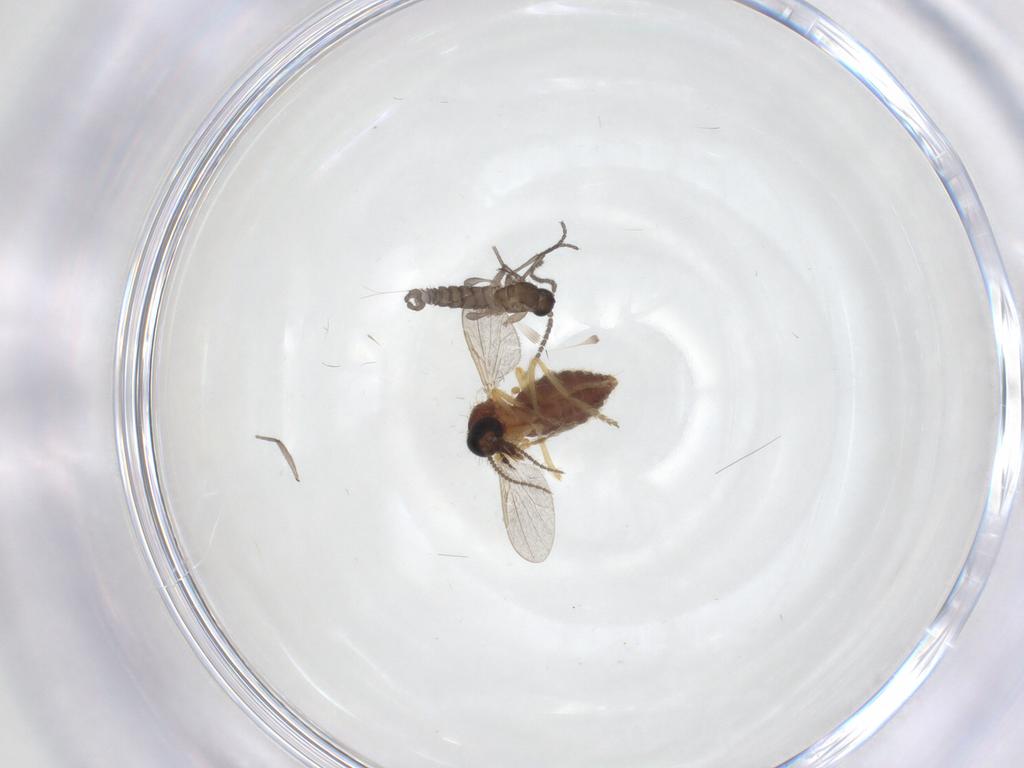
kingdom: Animalia
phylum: Arthropoda
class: Insecta
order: Diptera
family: Sciaridae
